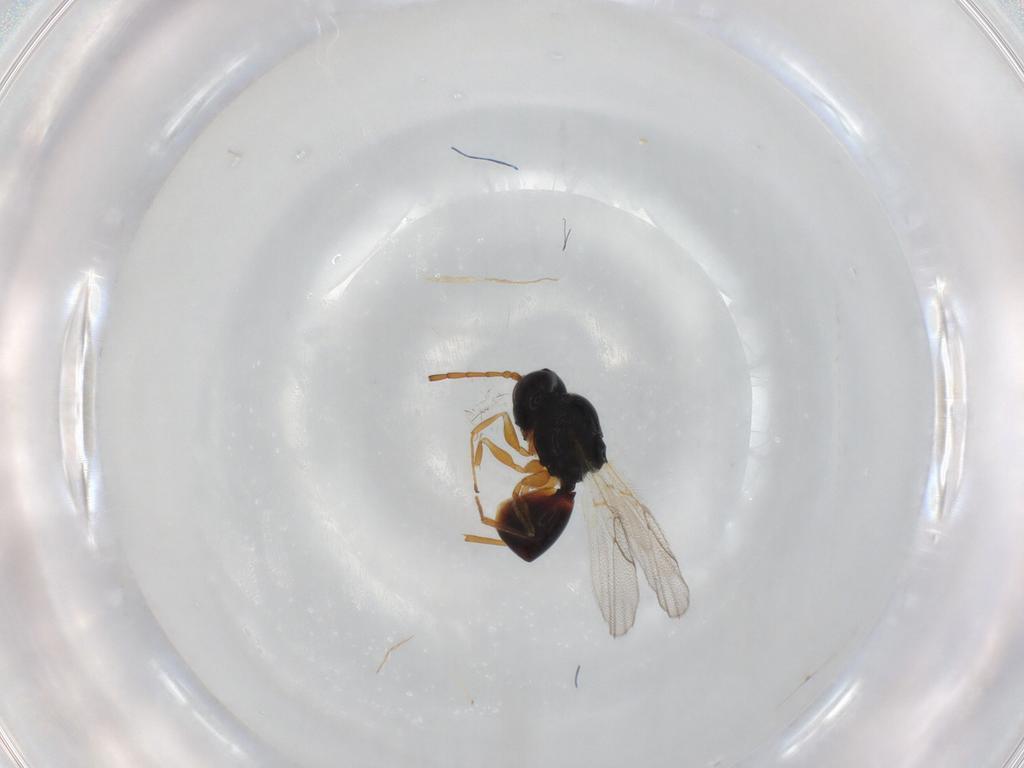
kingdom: Animalia
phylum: Arthropoda
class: Insecta
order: Hymenoptera
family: Figitidae
